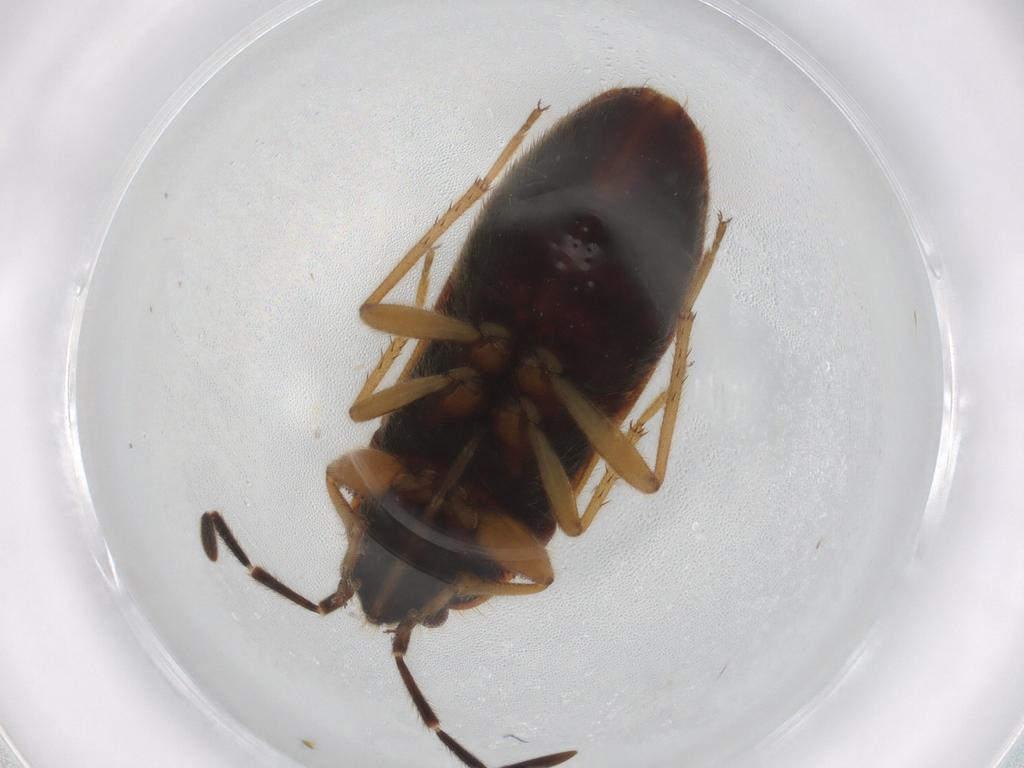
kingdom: Animalia
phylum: Arthropoda
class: Insecta
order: Hemiptera
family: Rhyparochromidae
